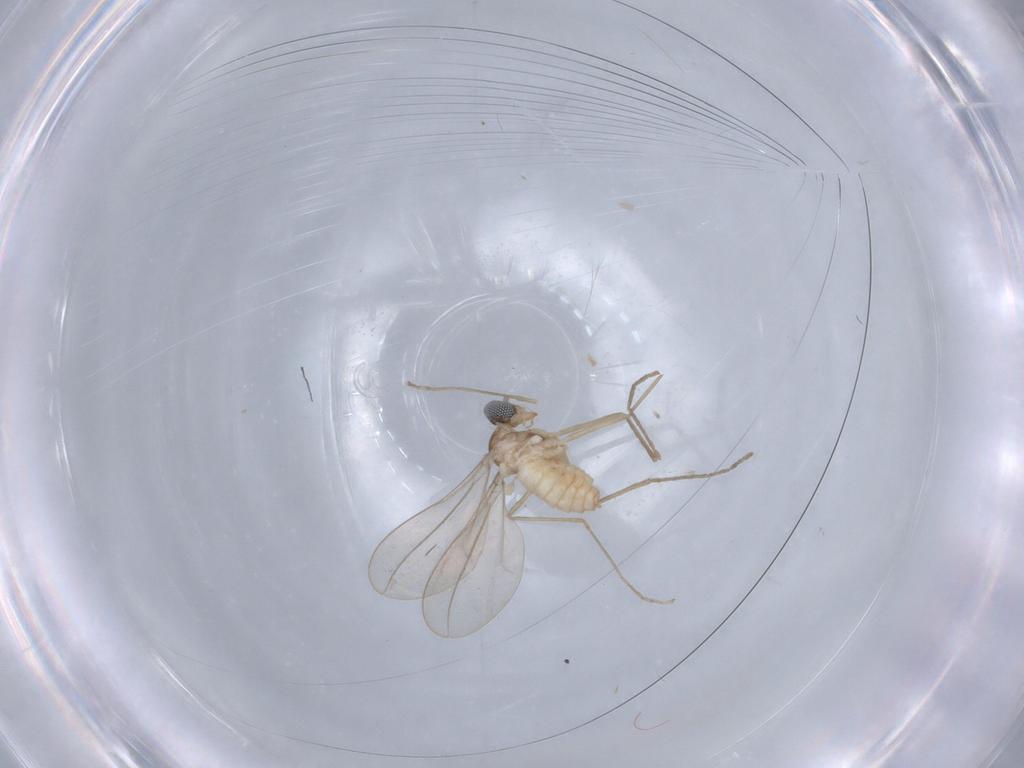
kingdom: Animalia
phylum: Arthropoda
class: Insecta
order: Diptera
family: Cecidomyiidae
